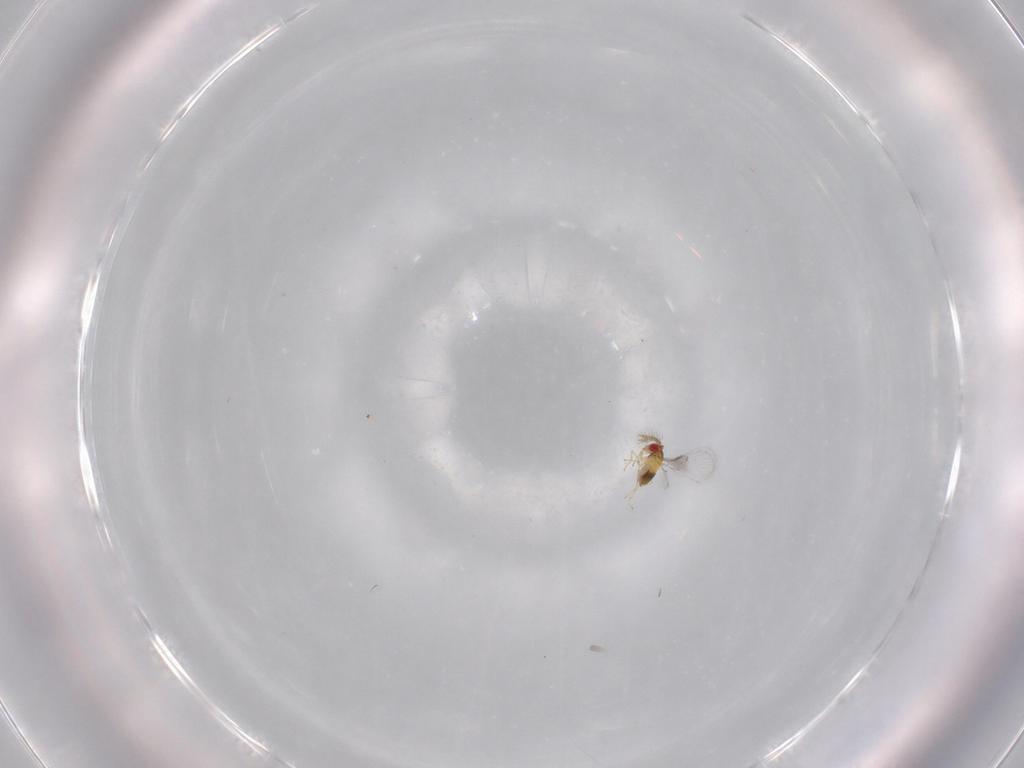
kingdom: Animalia
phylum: Arthropoda
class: Insecta
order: Hymenoptera
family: Trichogrammatidae
